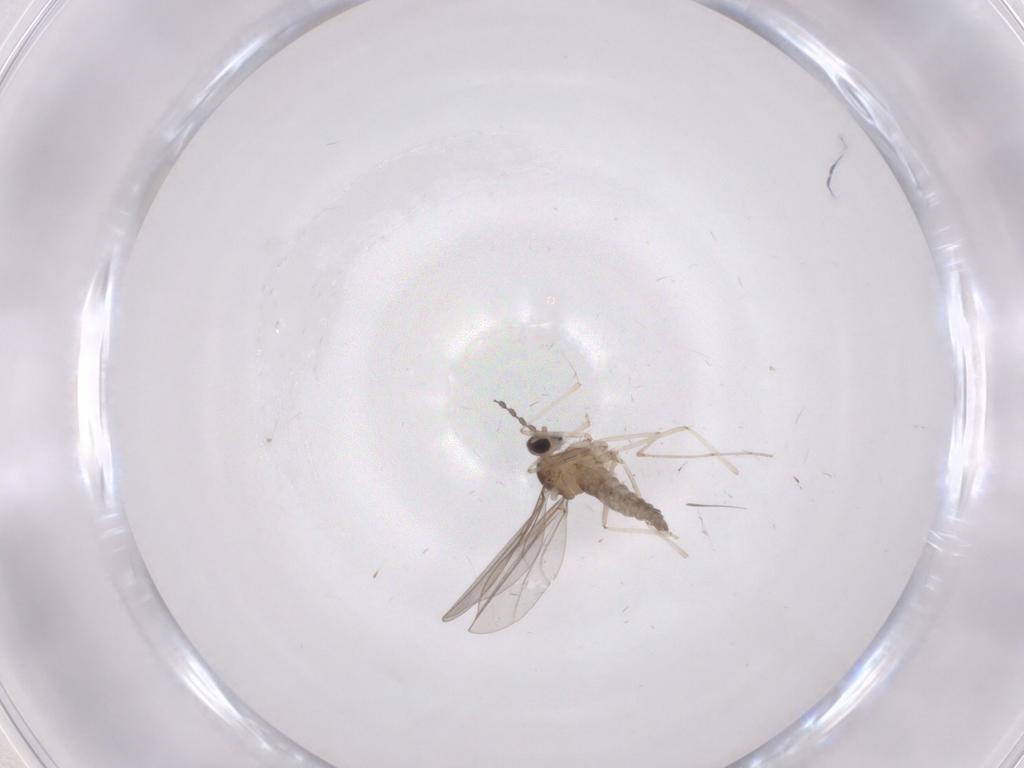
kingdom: Animalia
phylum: Arthropoda
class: Insecta
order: Diptera
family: Cecidomyiidae
